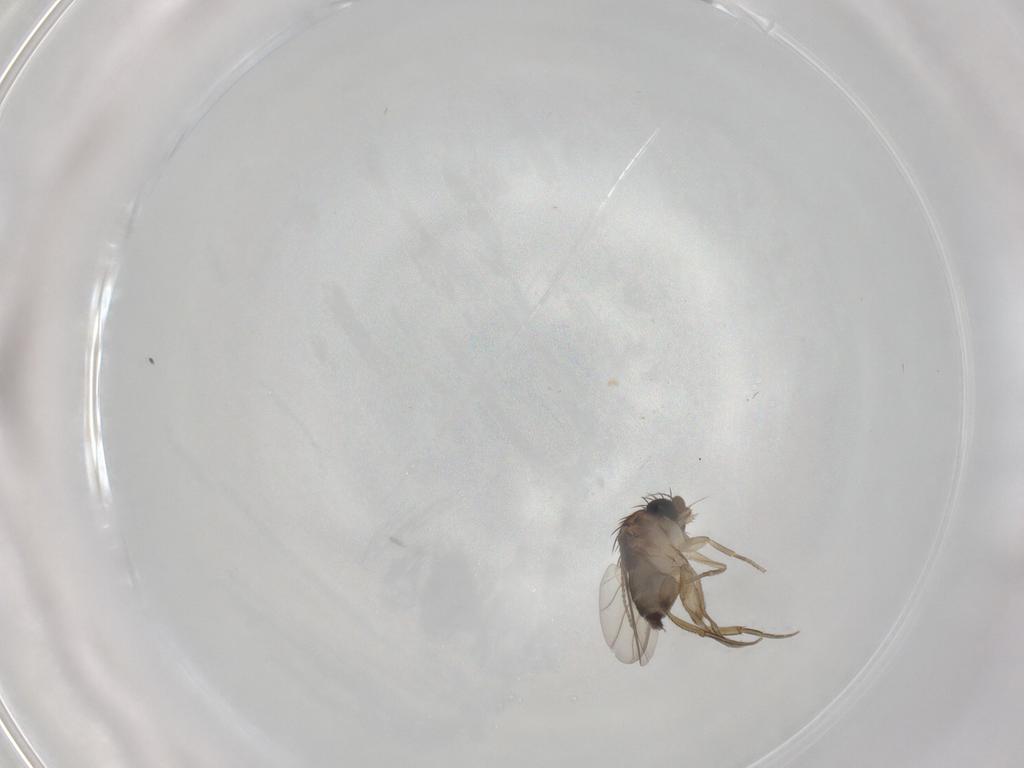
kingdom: Animalia
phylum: Arthropoda
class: Insecta
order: Diptera
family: Phoridae
